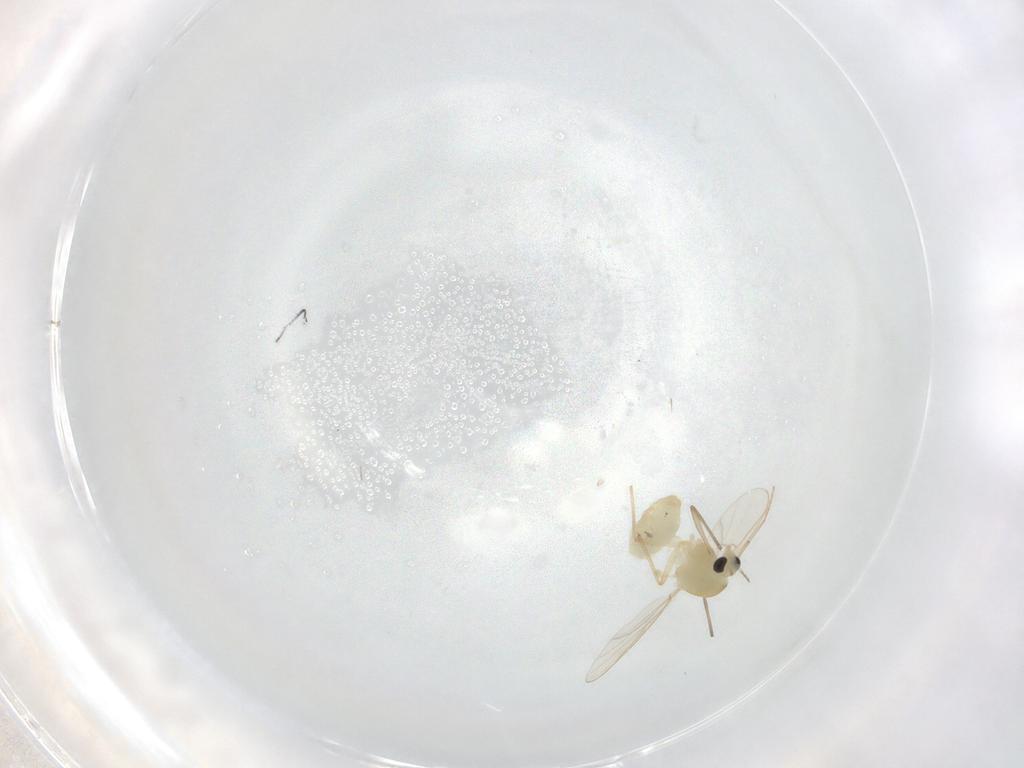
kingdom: Animalia
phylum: Arthropoda
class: Insecta
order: Diptera
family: Chironomidae
